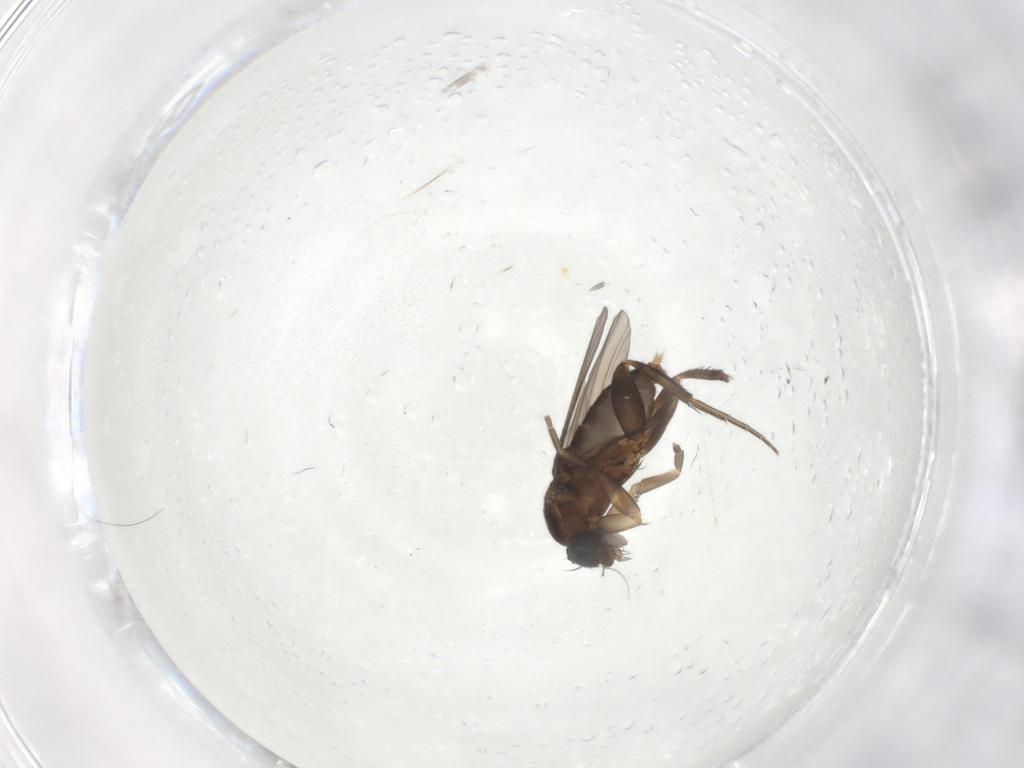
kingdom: Animalia
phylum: Arthropoda
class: Insecta
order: Diptera
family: Phoridae
